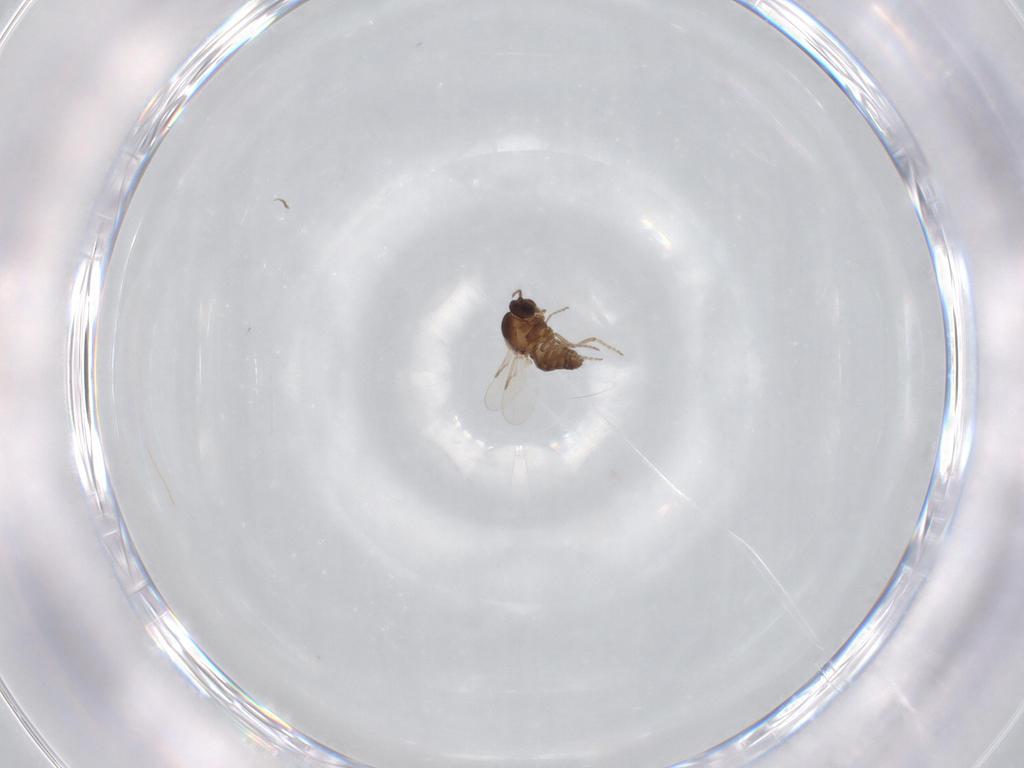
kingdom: Animalia
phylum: Arthropoda
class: Insecta
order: Diptera
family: Ceratopogonidae
